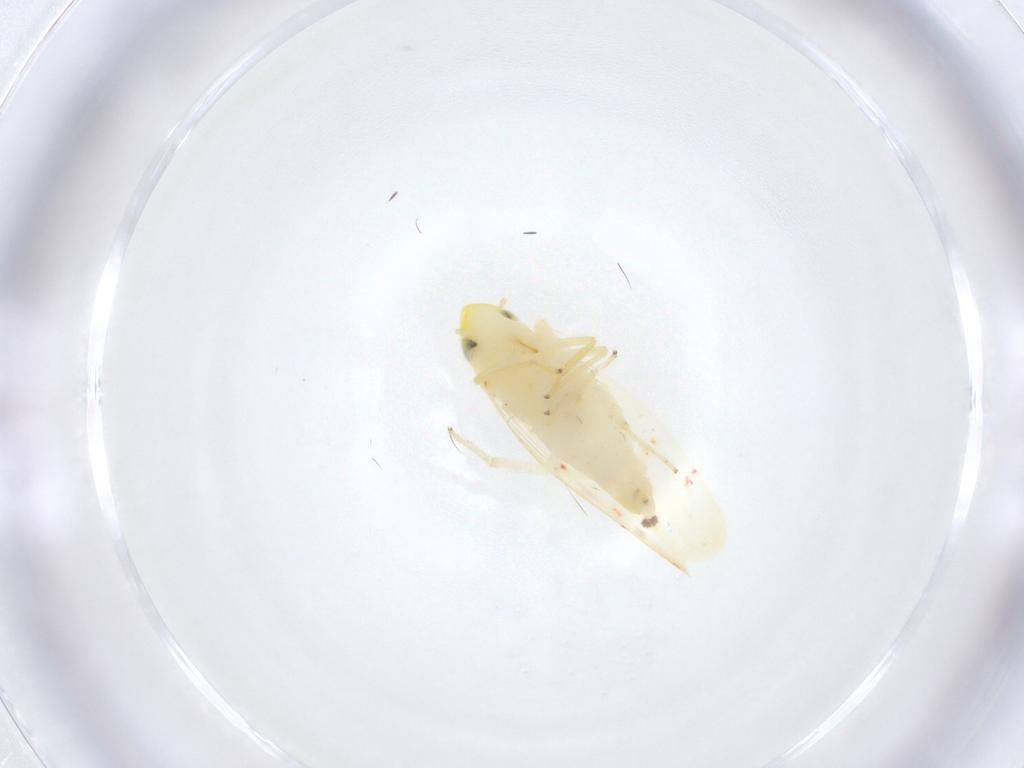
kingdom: Animalia
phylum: Arthropoda
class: Insecta
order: Hemiptera
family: Cicadellidae
